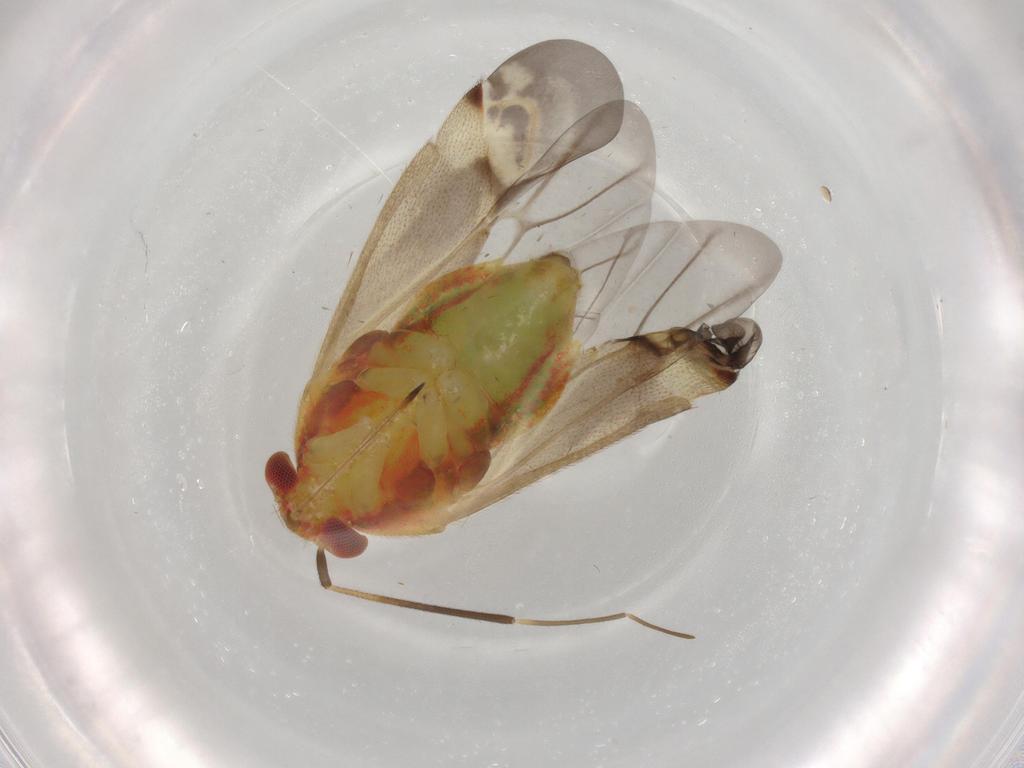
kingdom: Animalia
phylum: Arthropoda
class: Insecta
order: Hemiptera
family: Miridae
